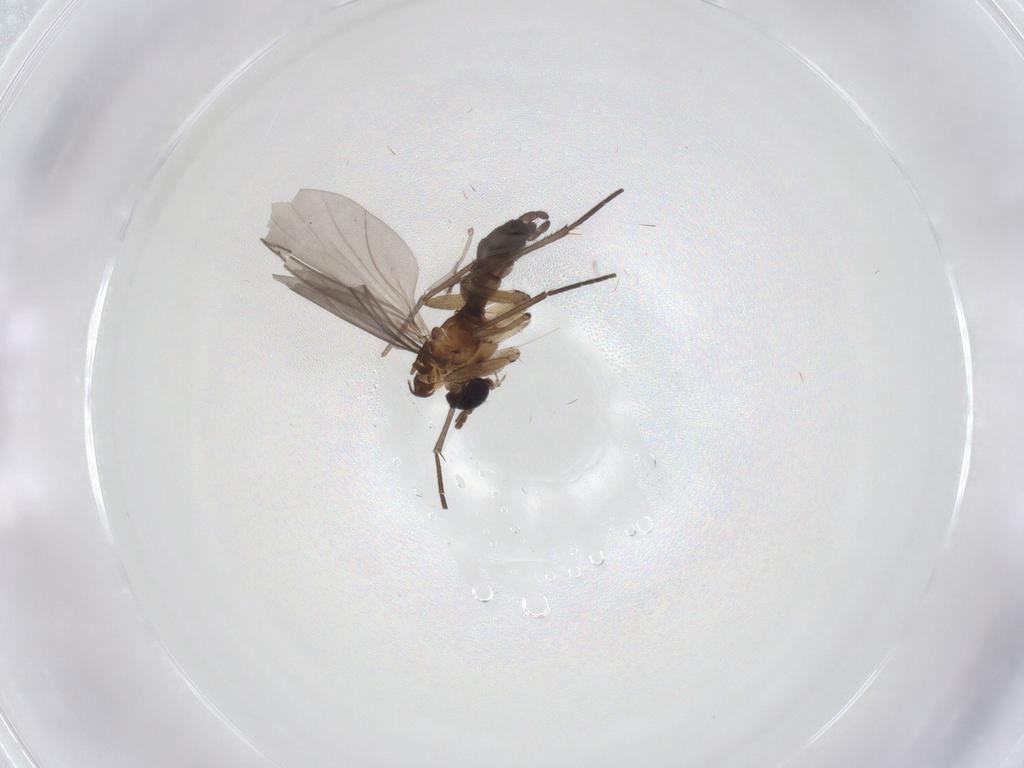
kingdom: Animalia
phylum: Arthropoda
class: Insecta
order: Diptera
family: Cecidomyiidae
